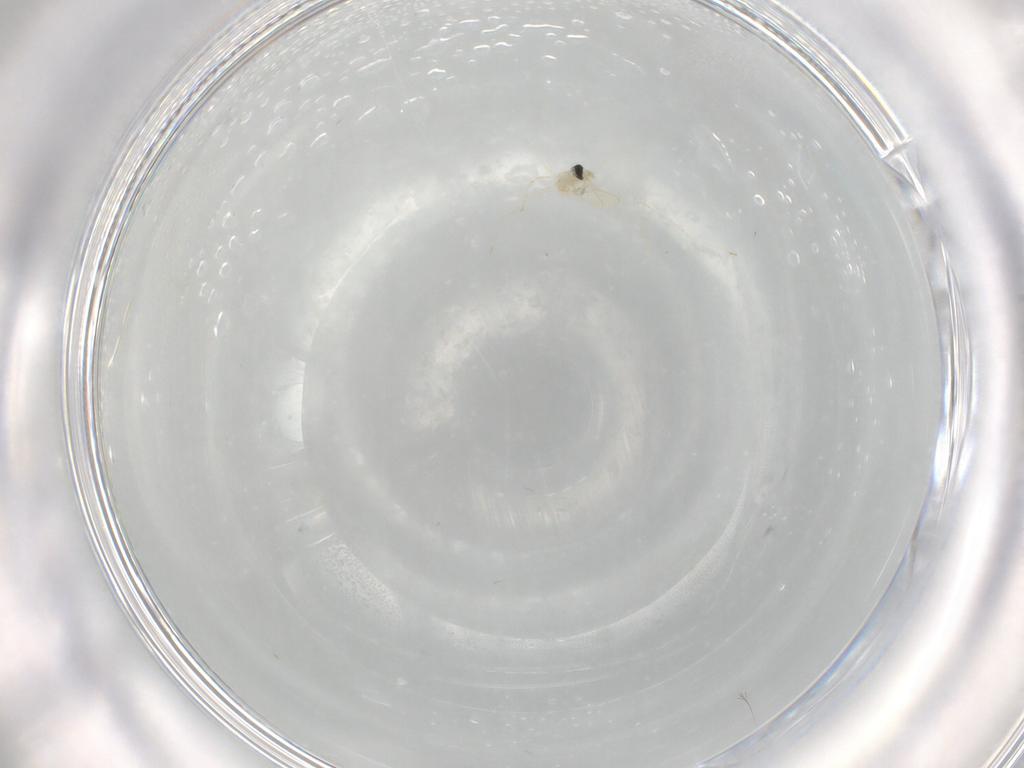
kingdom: Animalia
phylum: Arthropoda
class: Insecta
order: Diptera
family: Cecidomyiidae
